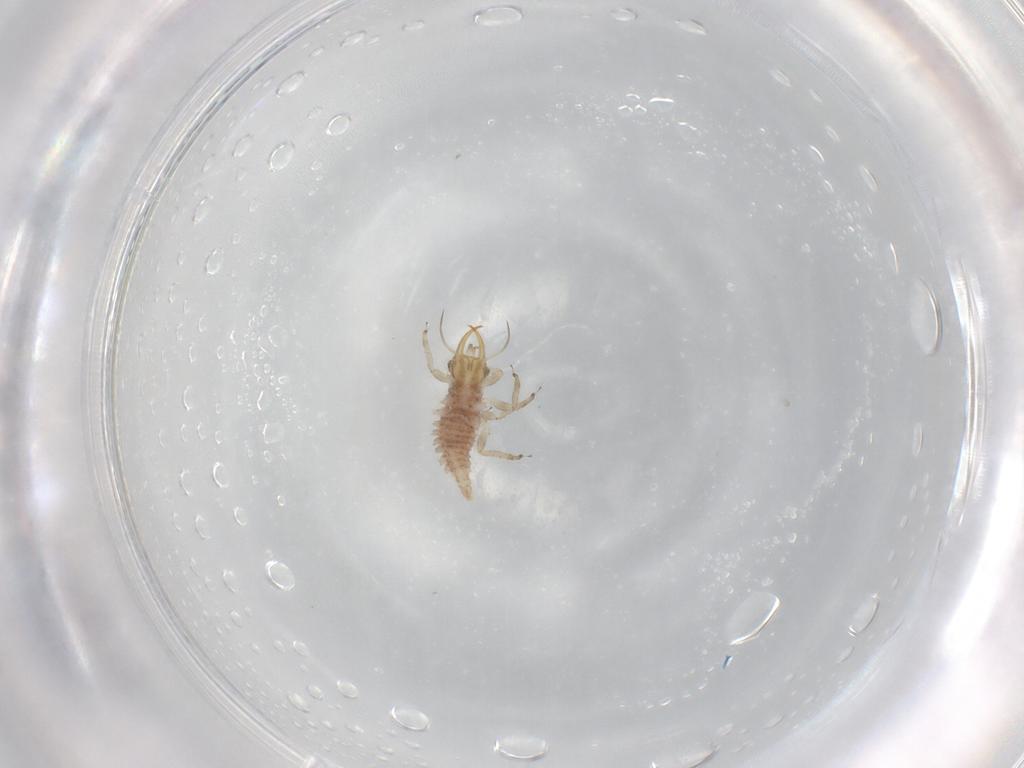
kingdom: Animalia
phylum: Arthropoda
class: Insecta
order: Neuroptera
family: Chrysopidae
